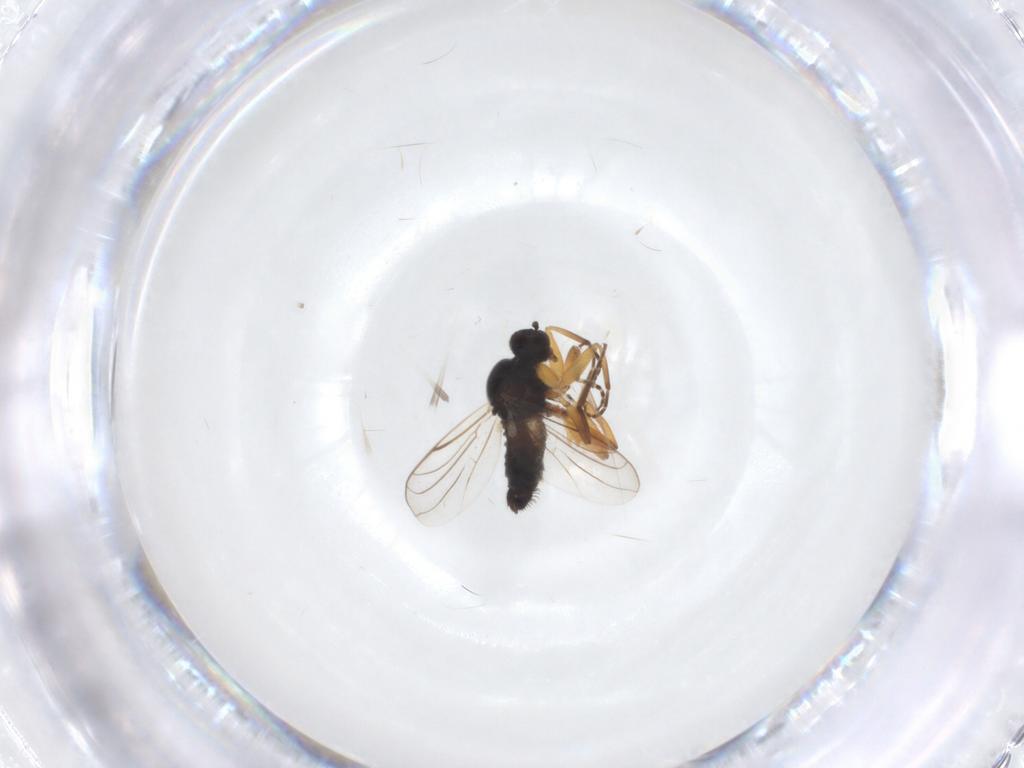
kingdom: Animalia
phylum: Arthropoda
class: Insecta
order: Diptera
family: Hybotidae
